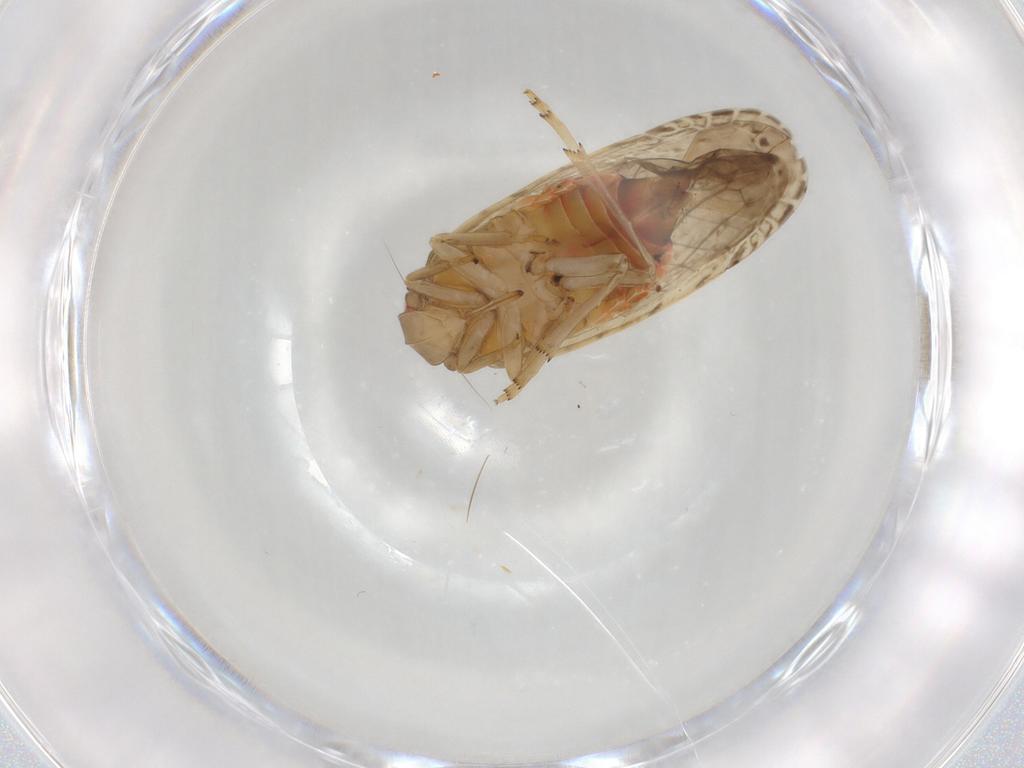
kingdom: Animalia
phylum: Arthropoda
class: Insecta
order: Hemiptera
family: Rhyparochromidae
